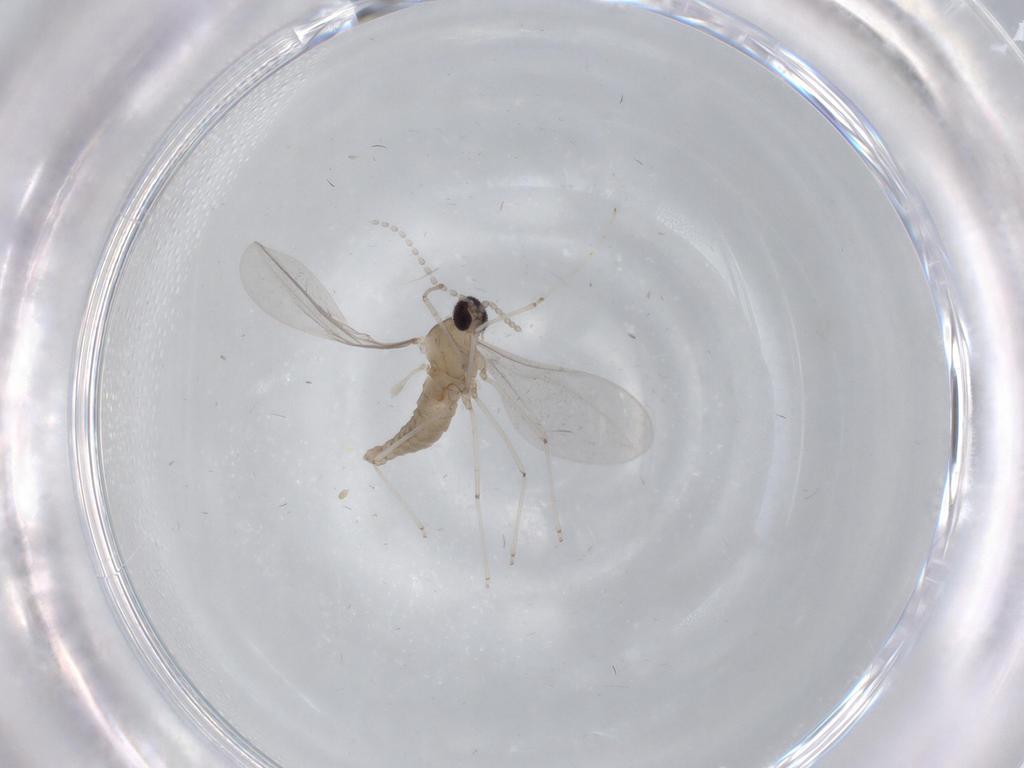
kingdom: Animalia
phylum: Arthropoda
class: Insecta
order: Diptera
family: Cecidomyiidae
